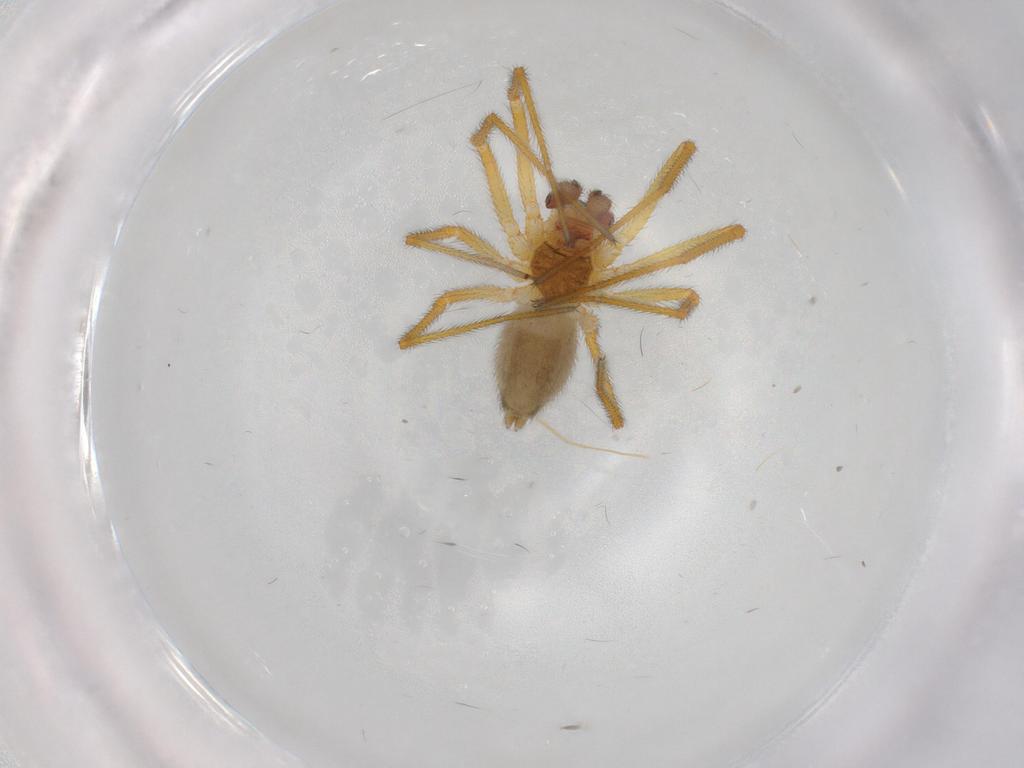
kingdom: Animalia
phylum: Arthropoda
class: Arachnida
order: Araneae
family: Linyphiidae
